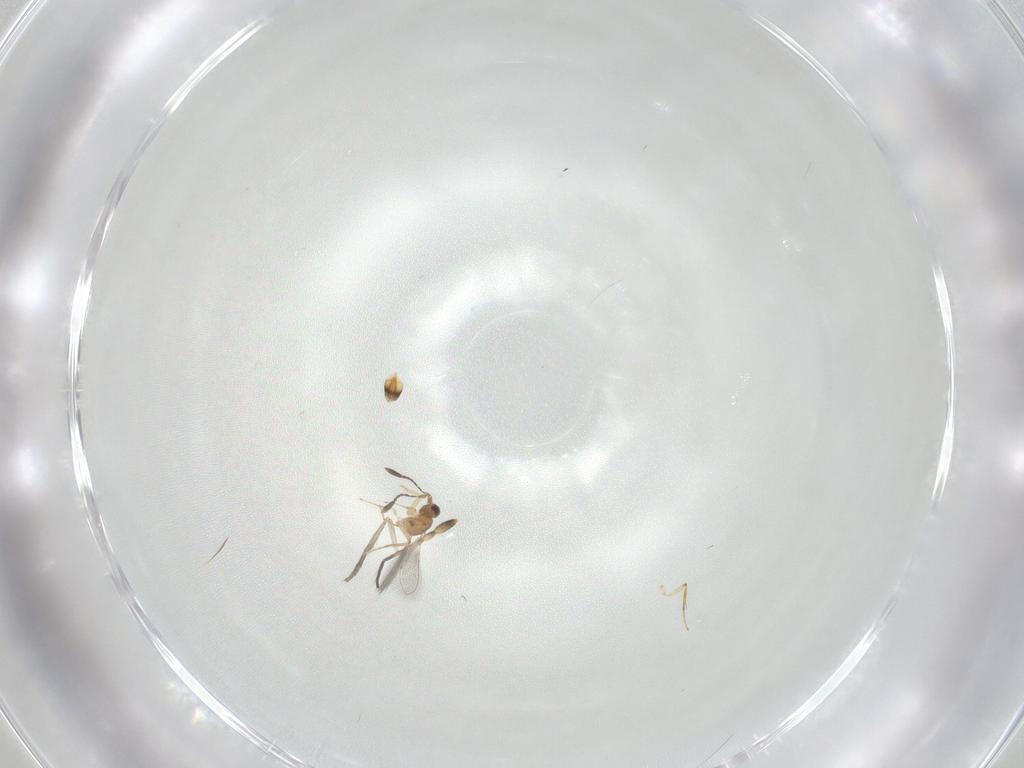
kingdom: Animalia
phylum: Arthropoda
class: Insecta
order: Hymenoptera
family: Mymaridae
